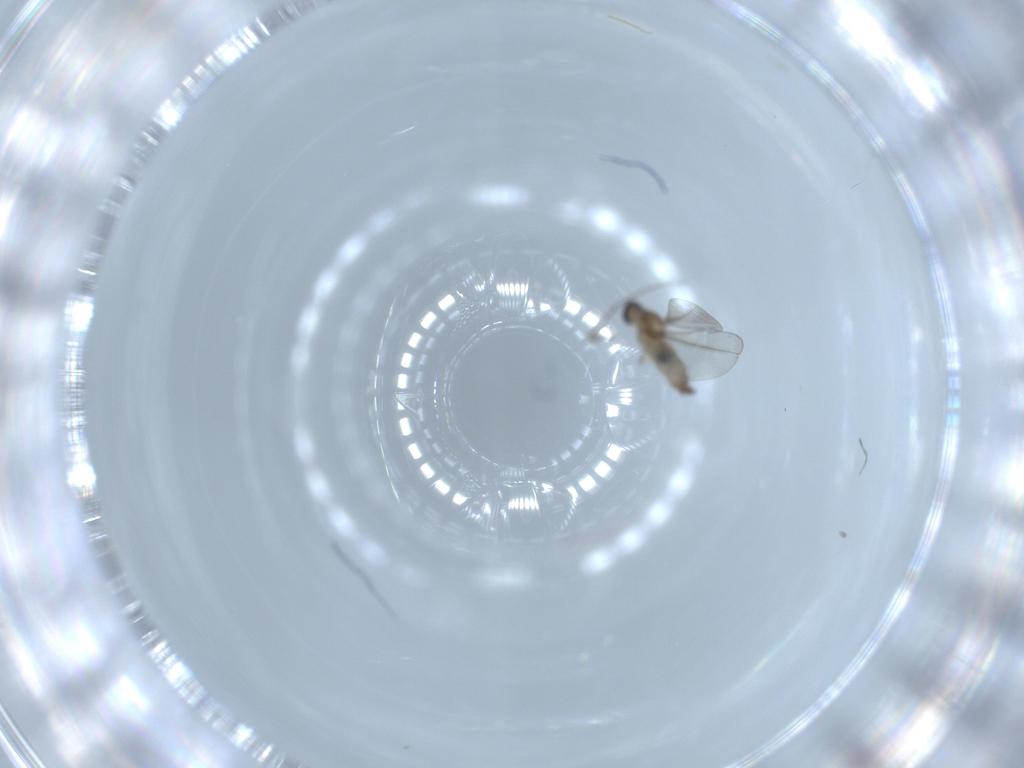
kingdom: Animalia
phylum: Arthropoda
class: Insecta
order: Diptera
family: Cecidomyiidae
